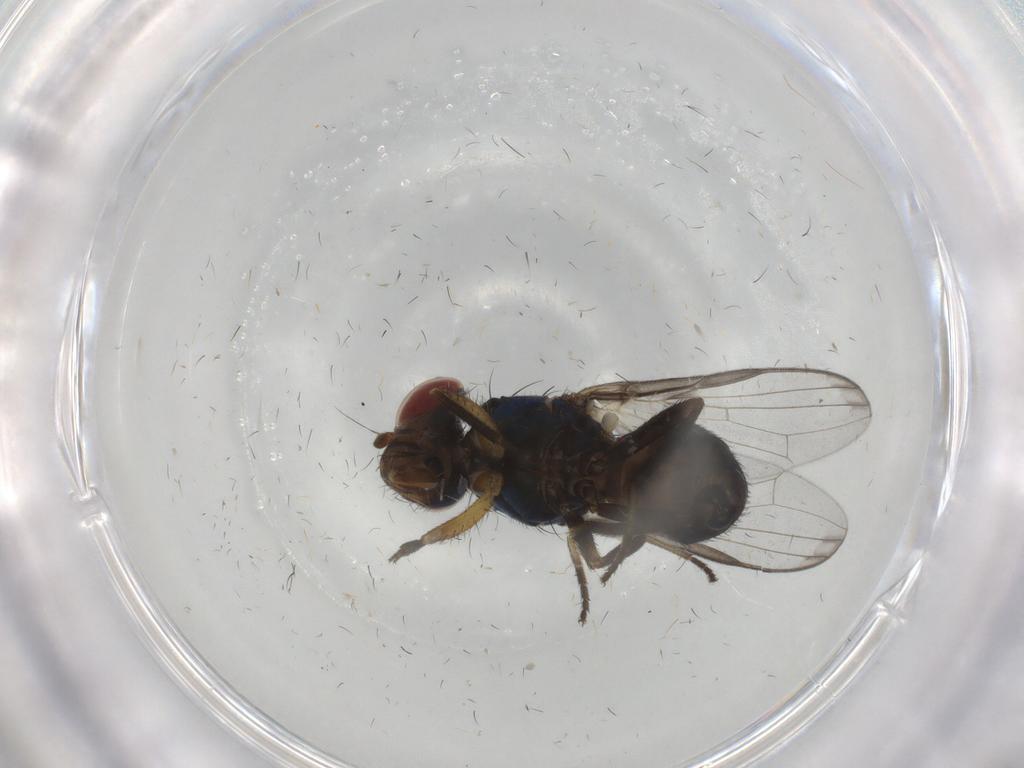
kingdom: Animalia
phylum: Arthropoda
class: Insecta
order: Diptera
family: Ulidiidae
